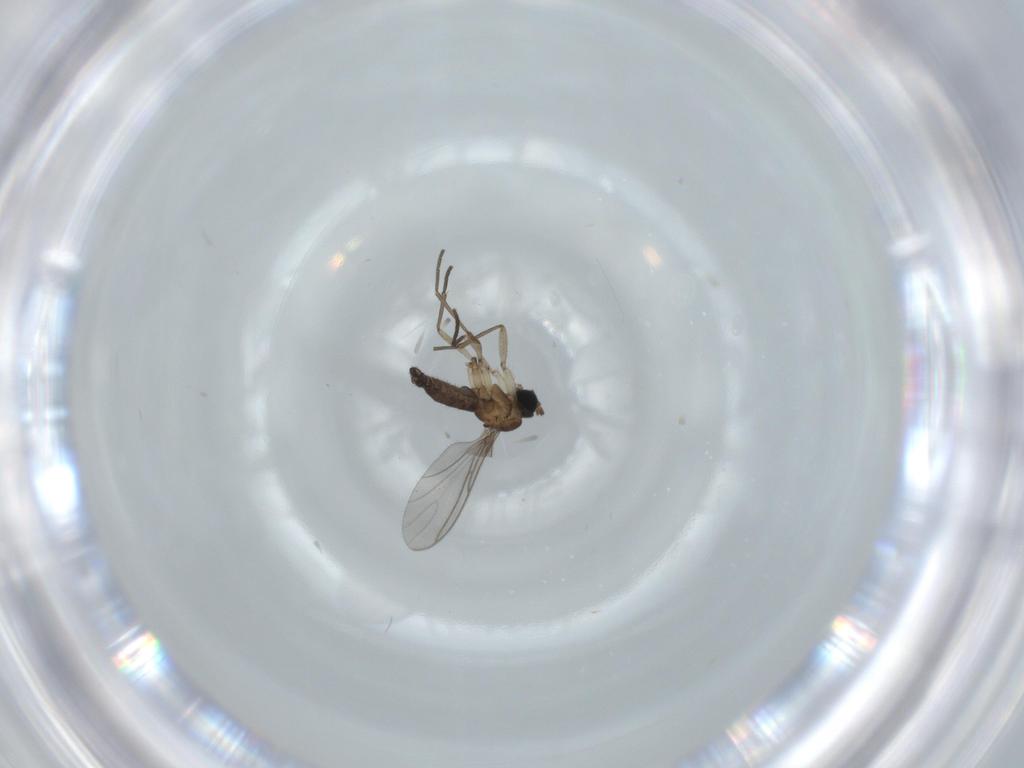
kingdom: Animalia
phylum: Arthropoda
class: Insecta
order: Diptera
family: Sciaridae
